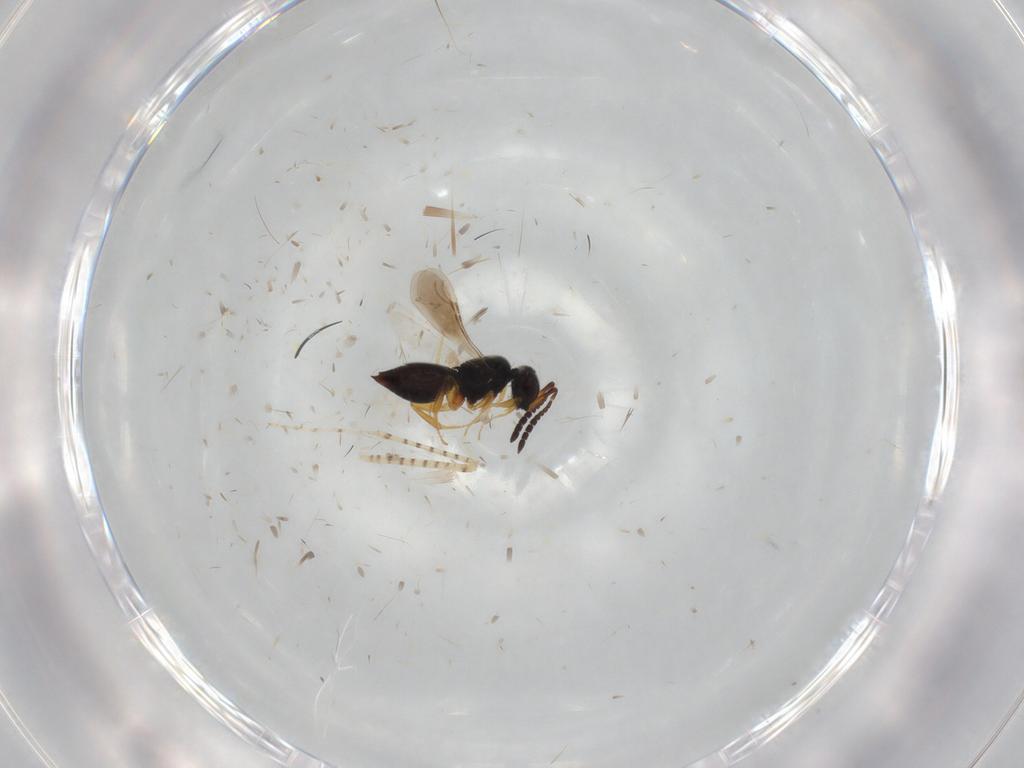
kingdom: Animalia
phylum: Arthropoda
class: Insecta
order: Hymenoptera
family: Ceraphronidae
